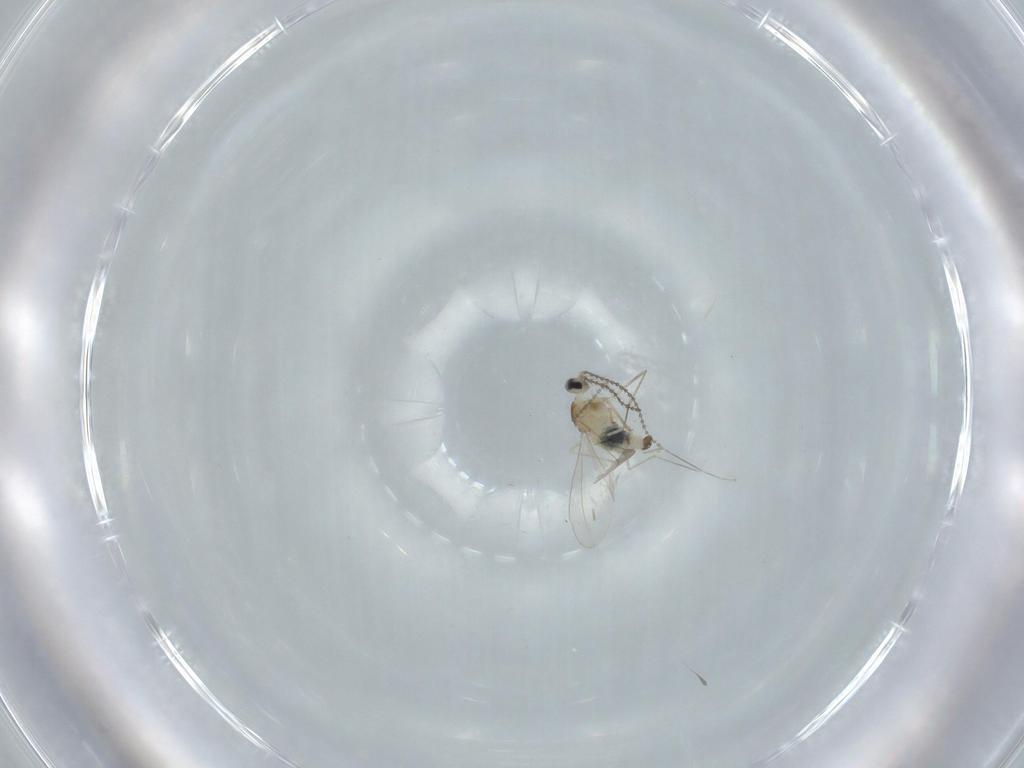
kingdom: Animalia
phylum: Arthropoda
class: Insecta
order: Diptera
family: Cecidomyiidae
